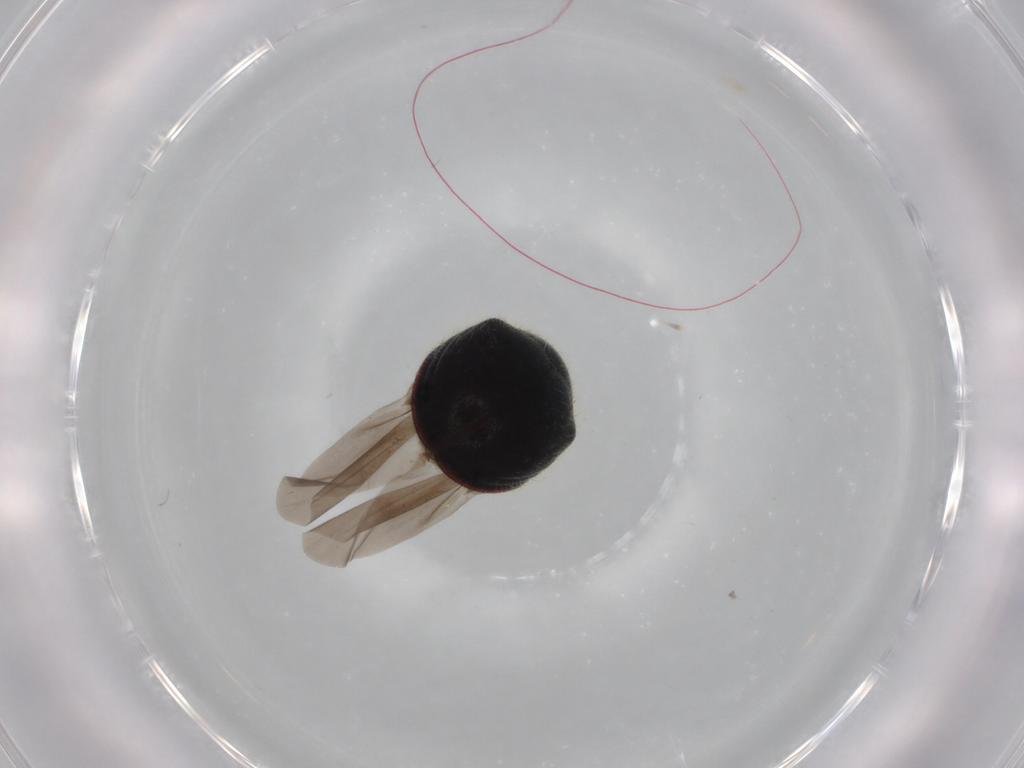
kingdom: Animalia
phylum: Arthropoda
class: Insecta
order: Coleoptera
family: Ptinidae
